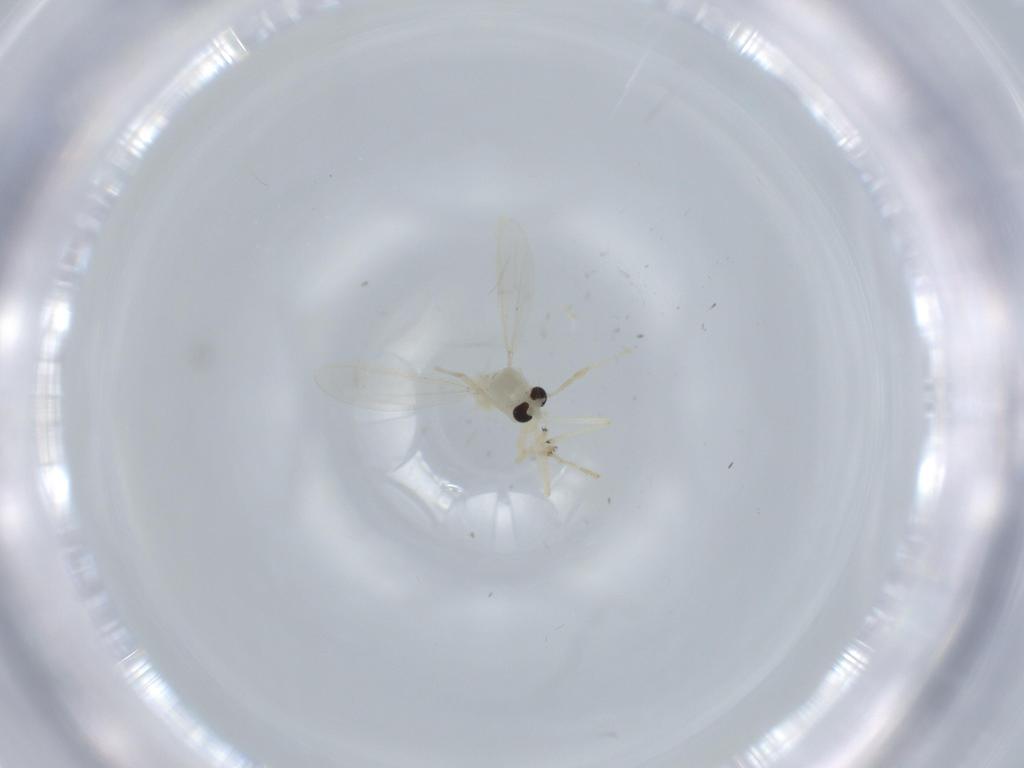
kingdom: Animalia
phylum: Arthropoda
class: Insecta
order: Diptera
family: Chironomidae
